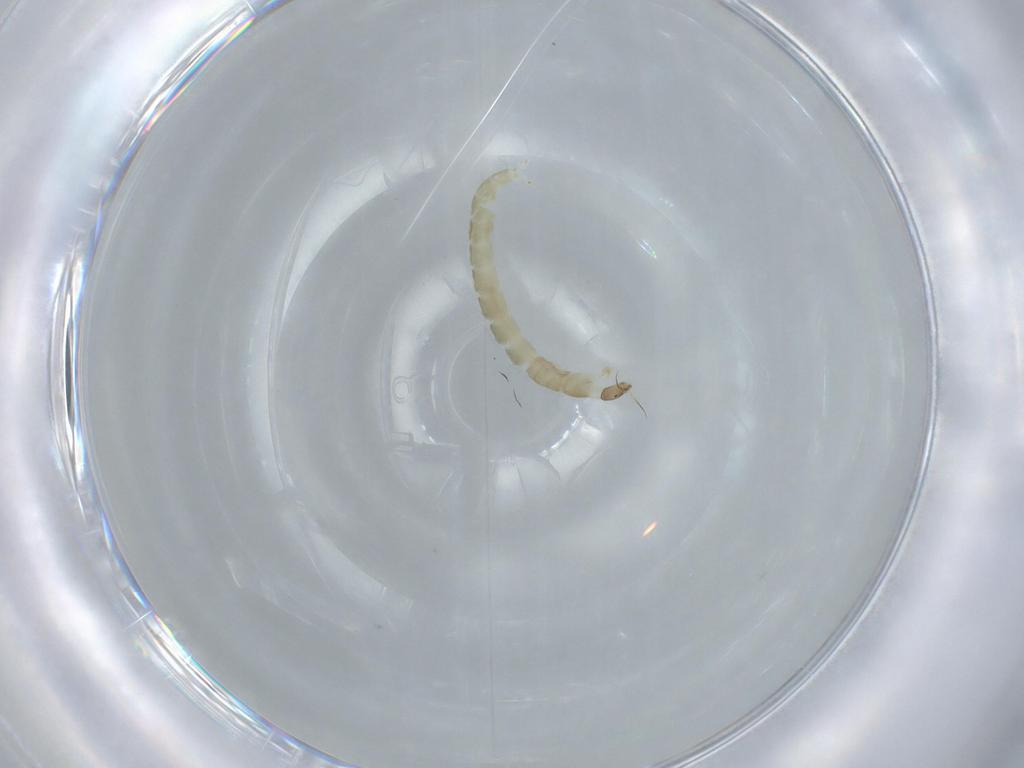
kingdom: Animalia
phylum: Arthropoda
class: Insecta
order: Diptera
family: Chironomidae
